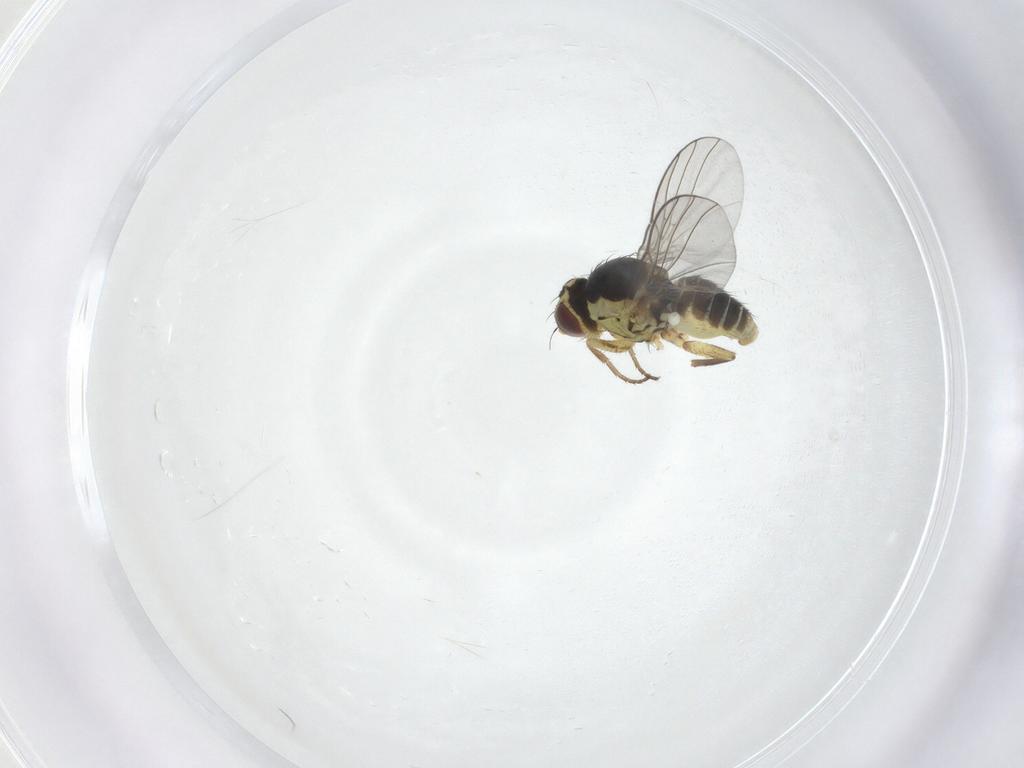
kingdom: Animalia
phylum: Arthropoda
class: Insecta
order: Diptera
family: Agromyzidae
